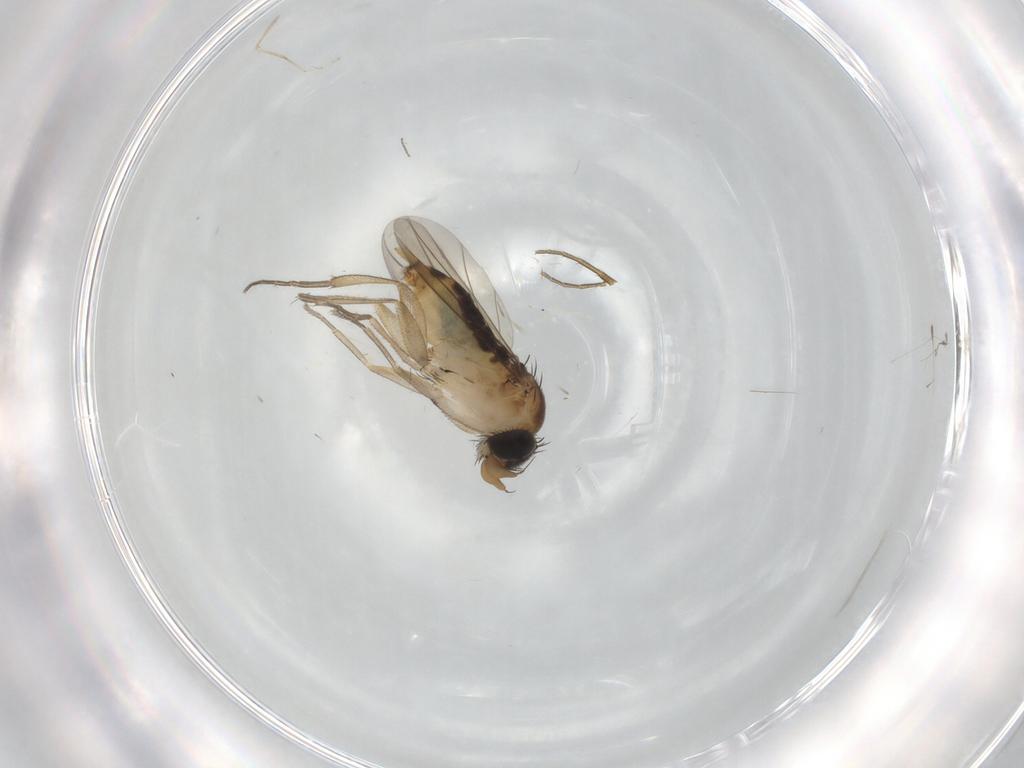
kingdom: Animalia
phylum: Arthropoda
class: Insecta
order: Diptera
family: Phoridae
